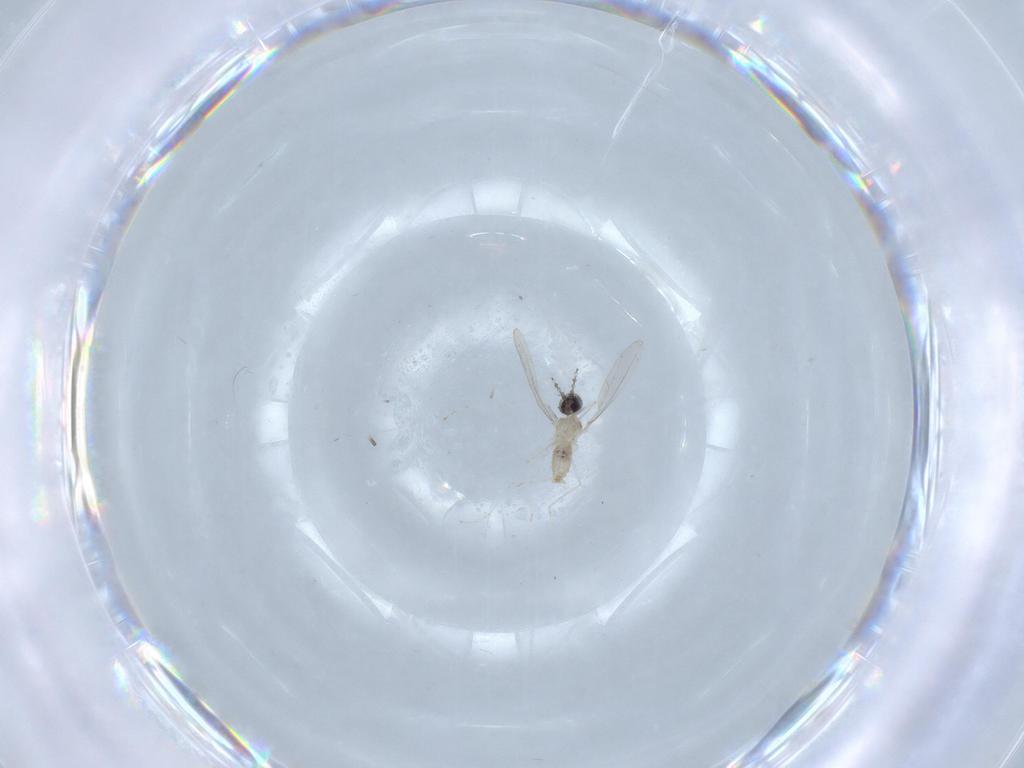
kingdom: Animalia
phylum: Arthropoda
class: Insecta
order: Diptera
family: Cecidomyiidae
